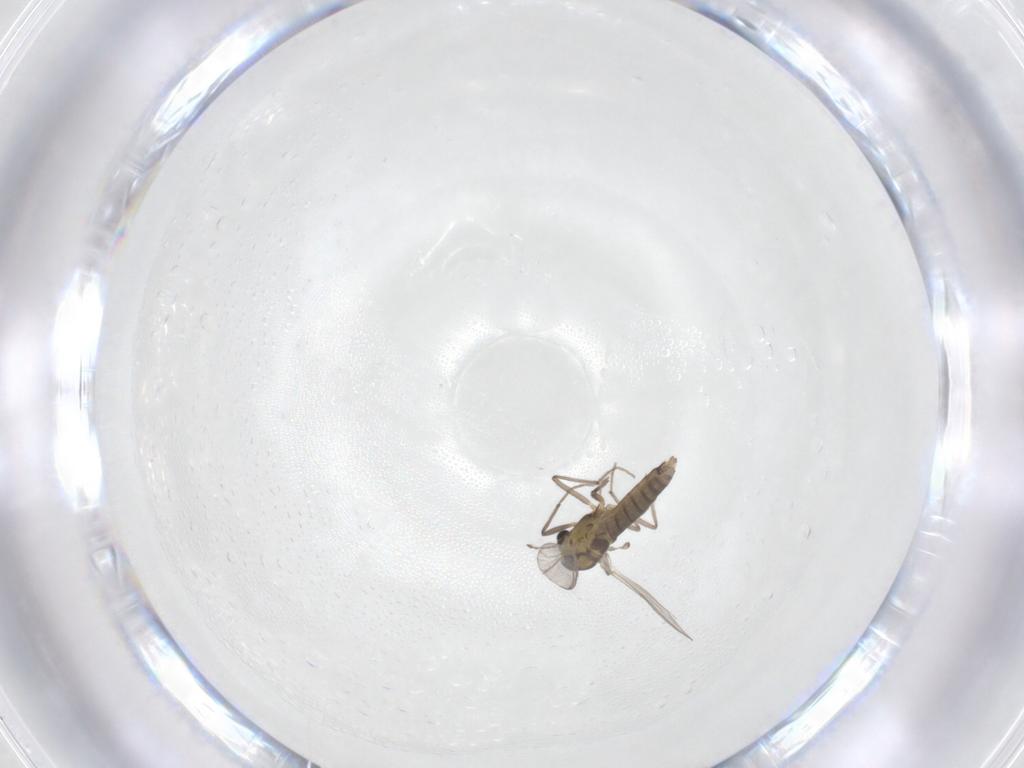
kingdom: Animalia
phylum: Arthropoda
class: Insecta
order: Diptera
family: Chironomidae
